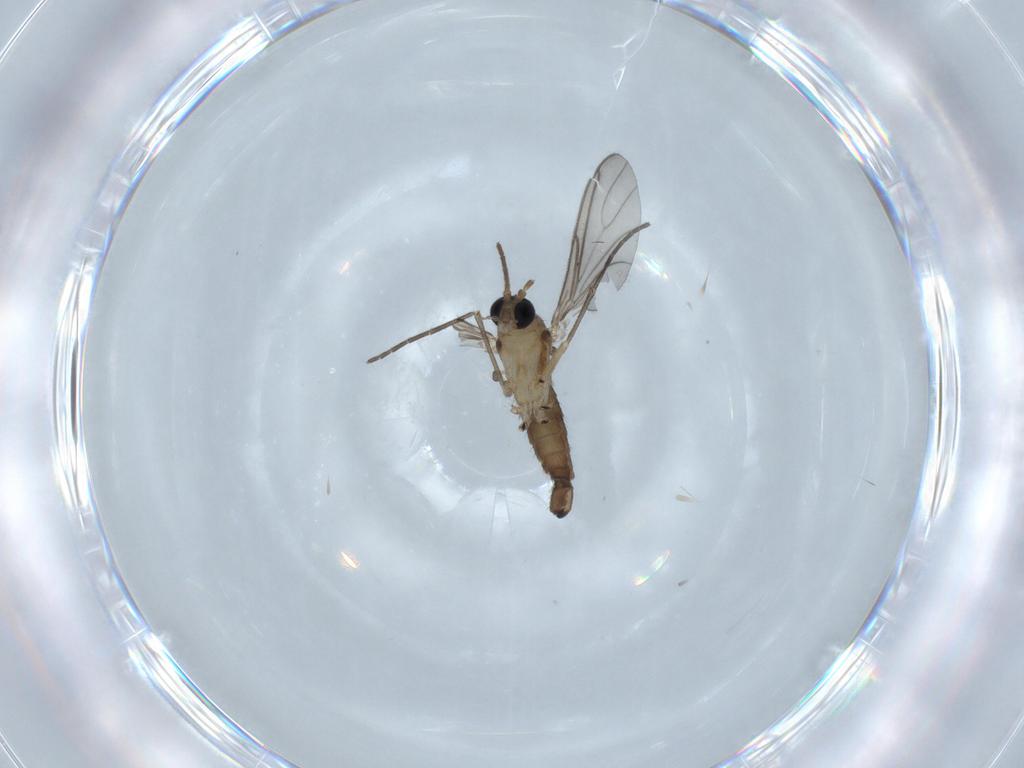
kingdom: Animalia
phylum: Arthropoda
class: Insecta
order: Diptera
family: Sciaridae
